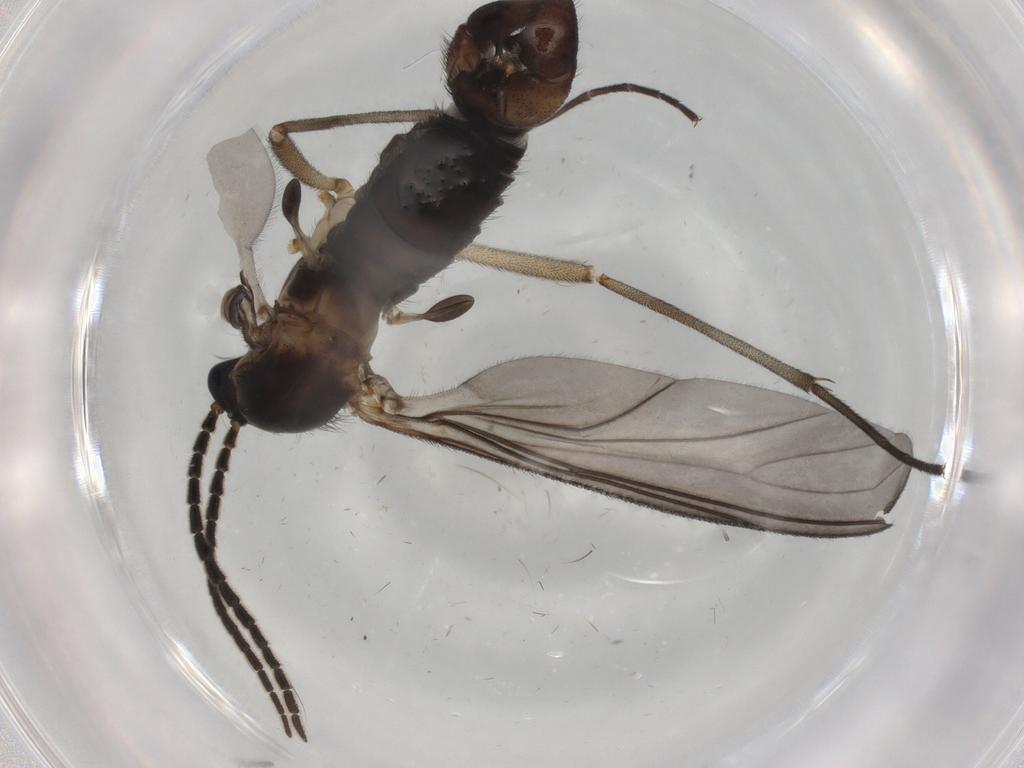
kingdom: Animalia
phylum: Arthropoda
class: Insecta
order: Diptera
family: Sciaridae
